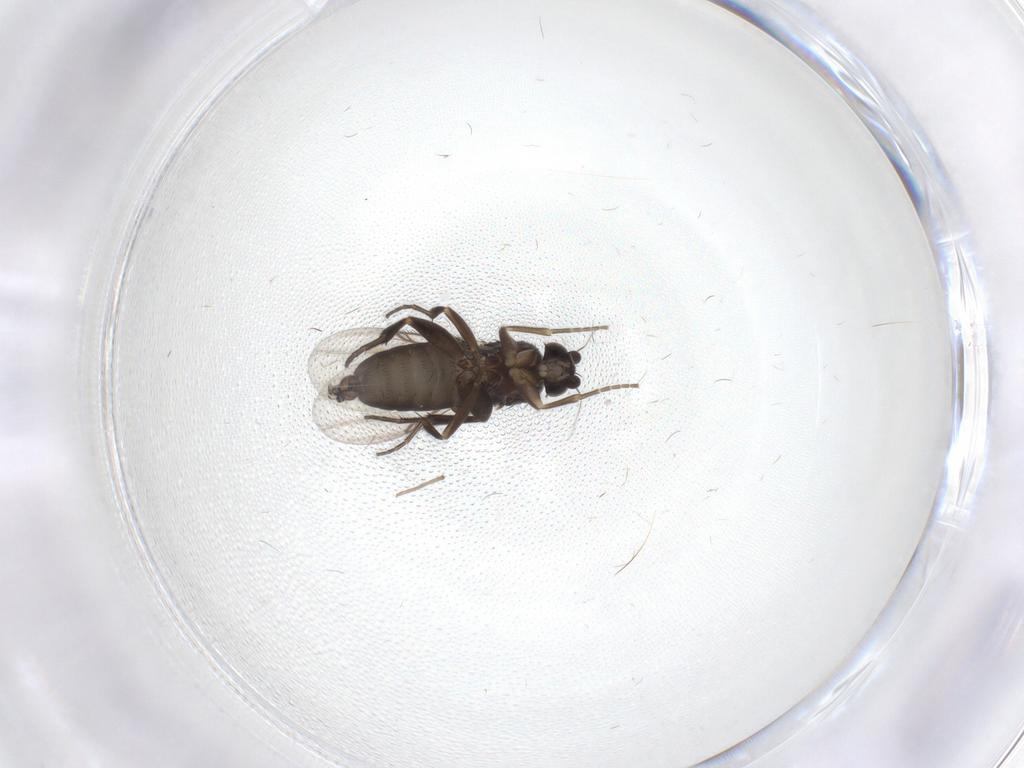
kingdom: Animalia
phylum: Arthropoda
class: Insecta
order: Diptera
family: Phoridae
